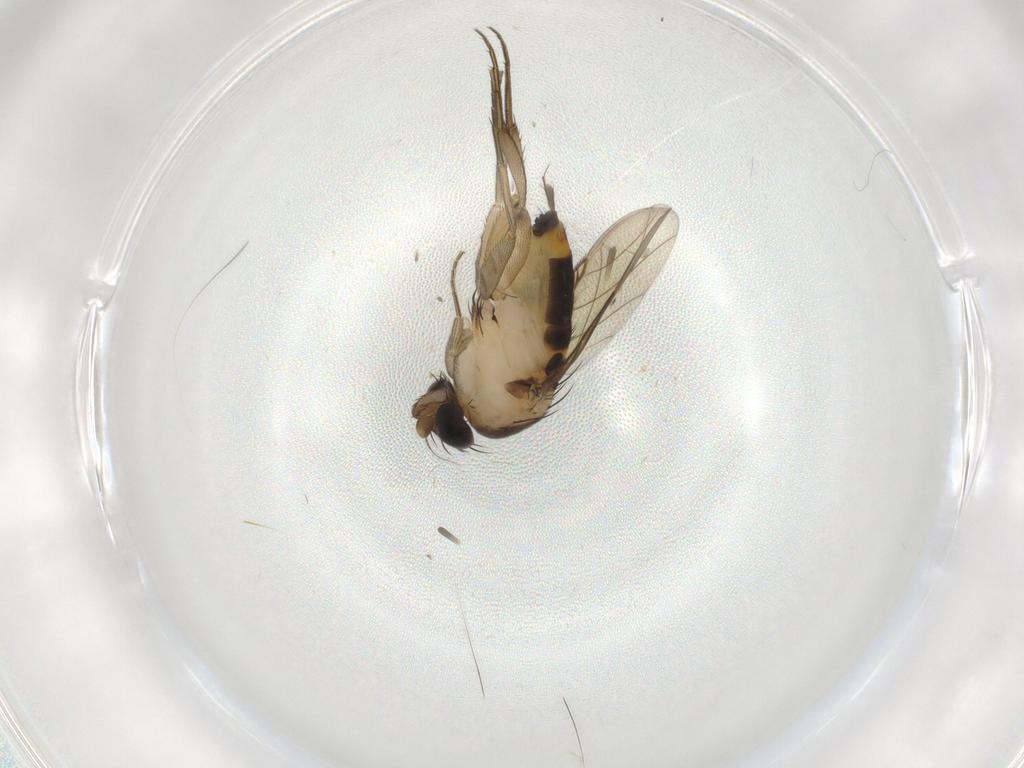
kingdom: Animalia
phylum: Arthropoda
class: Insecta
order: Diptera
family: Phoridae
